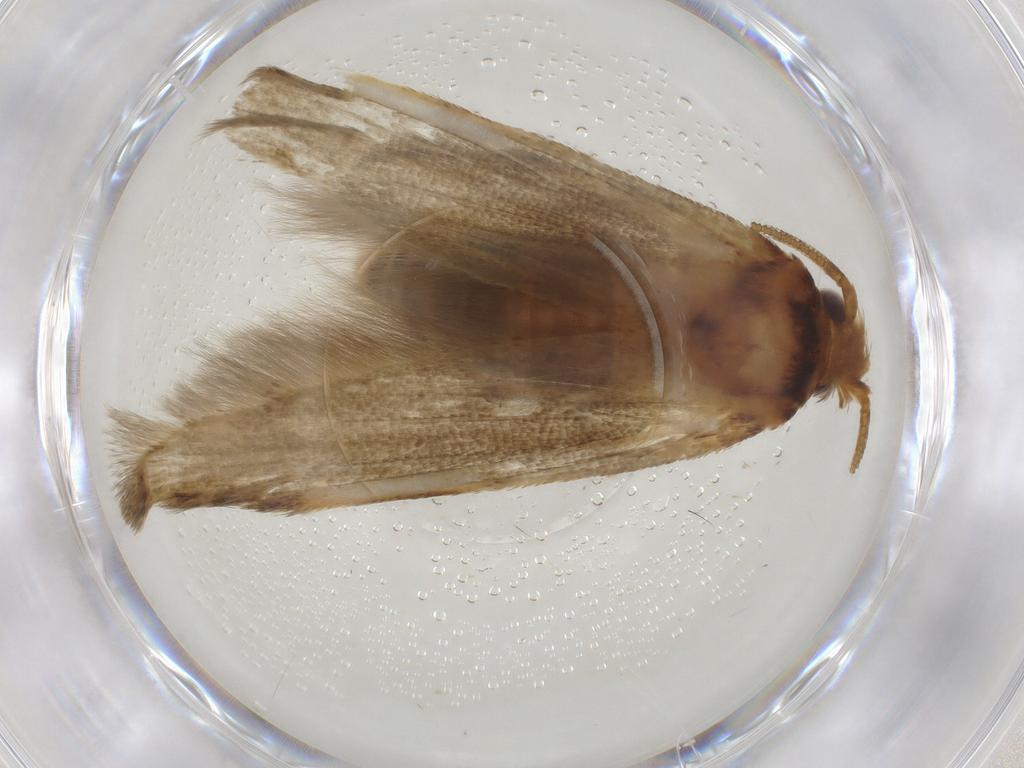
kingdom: Animalia
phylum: Arthropoda
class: Insecta
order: Lepidoptera
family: Blastobasidae
